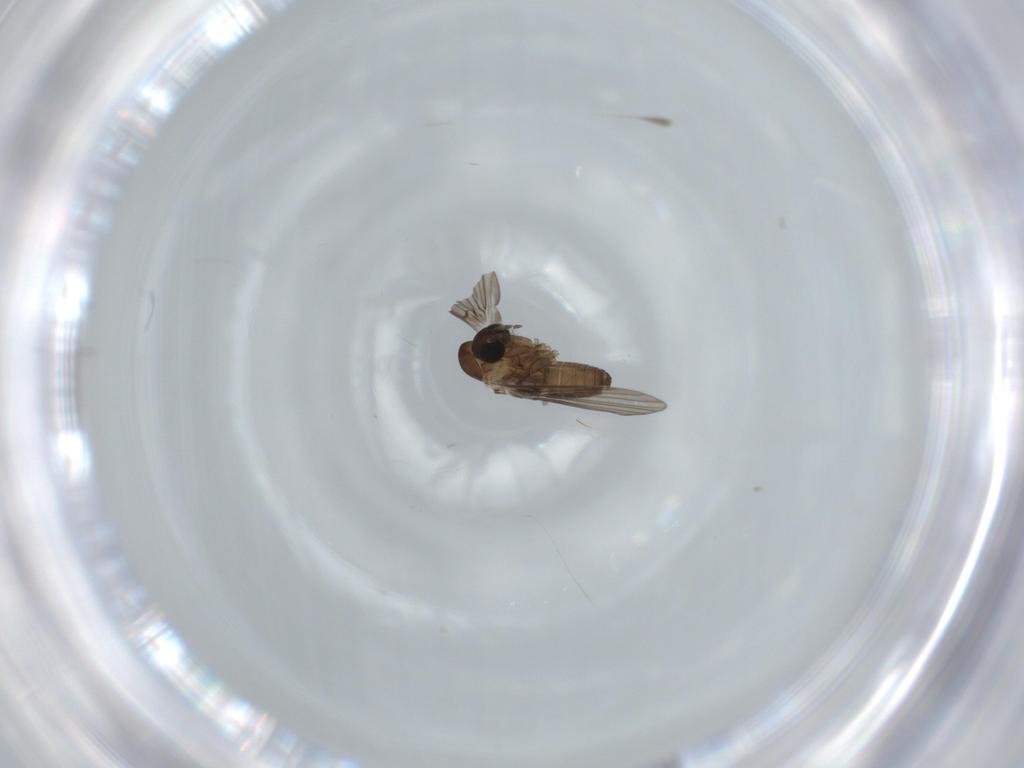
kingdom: Animalia
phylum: Arthropoda
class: Insecta
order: Diptera
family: Psychodidae
